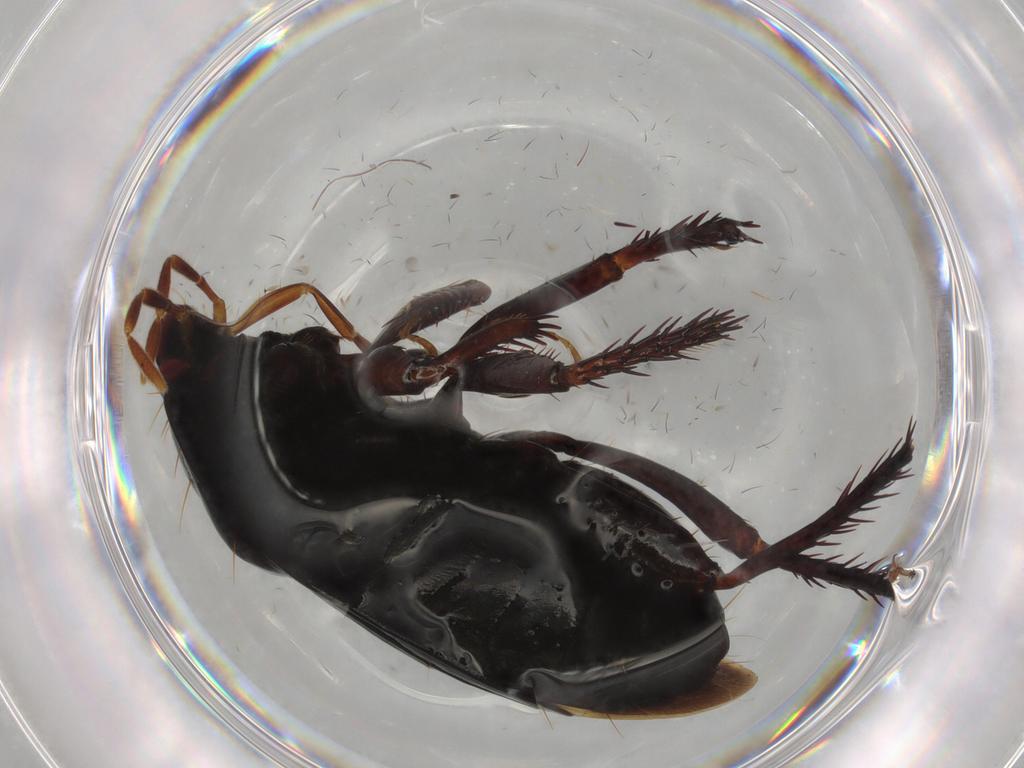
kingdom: Animalia
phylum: Arthropoda
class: Insecta
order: Hemiptera
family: Cydnidae
